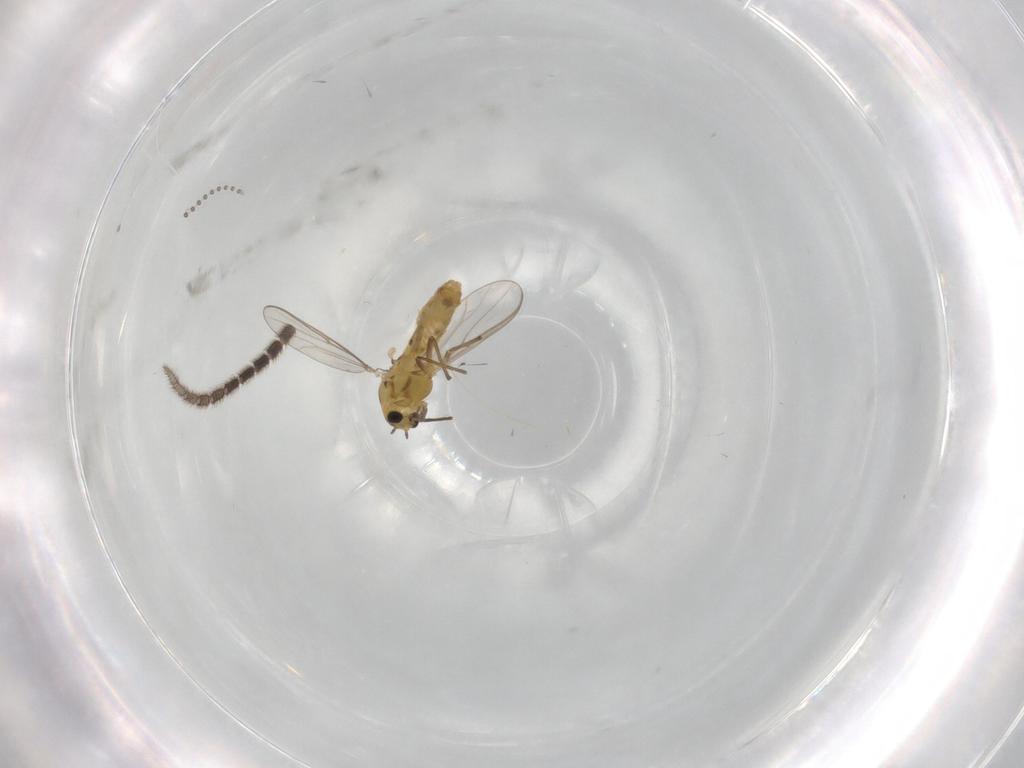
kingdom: Animalia
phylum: Arthropoda
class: Insecta
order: Diptera
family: Chironomidae
